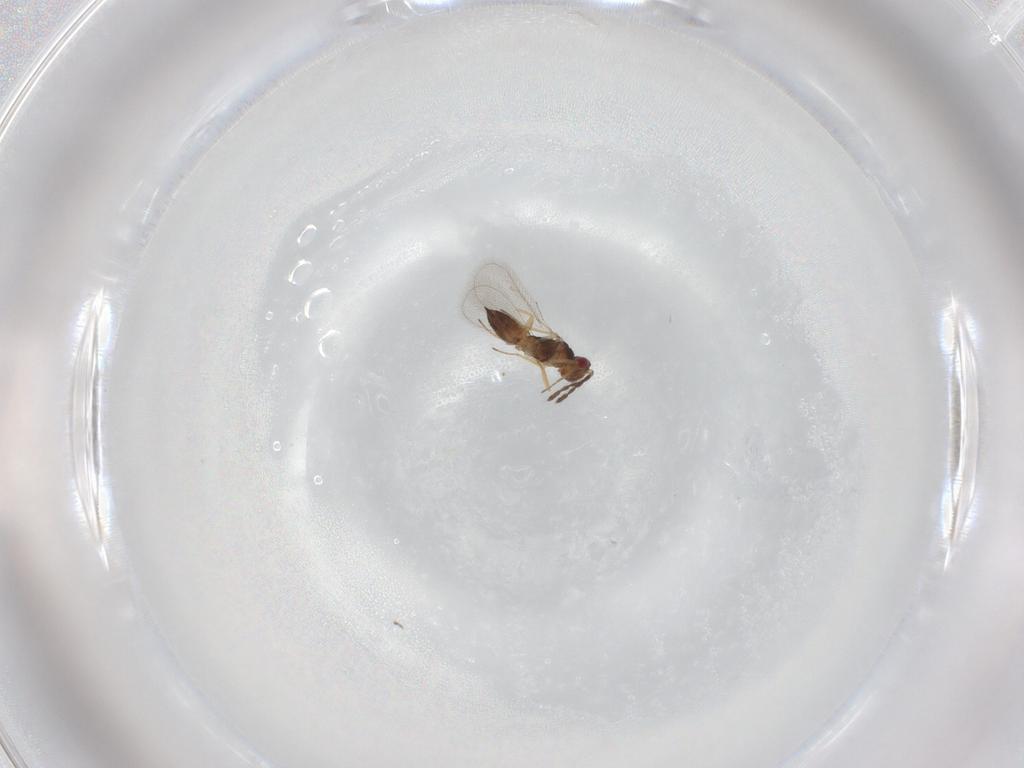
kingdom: Animalia
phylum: Arthropoda
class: Insecta
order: Hymenoptera
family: Eulophidae
